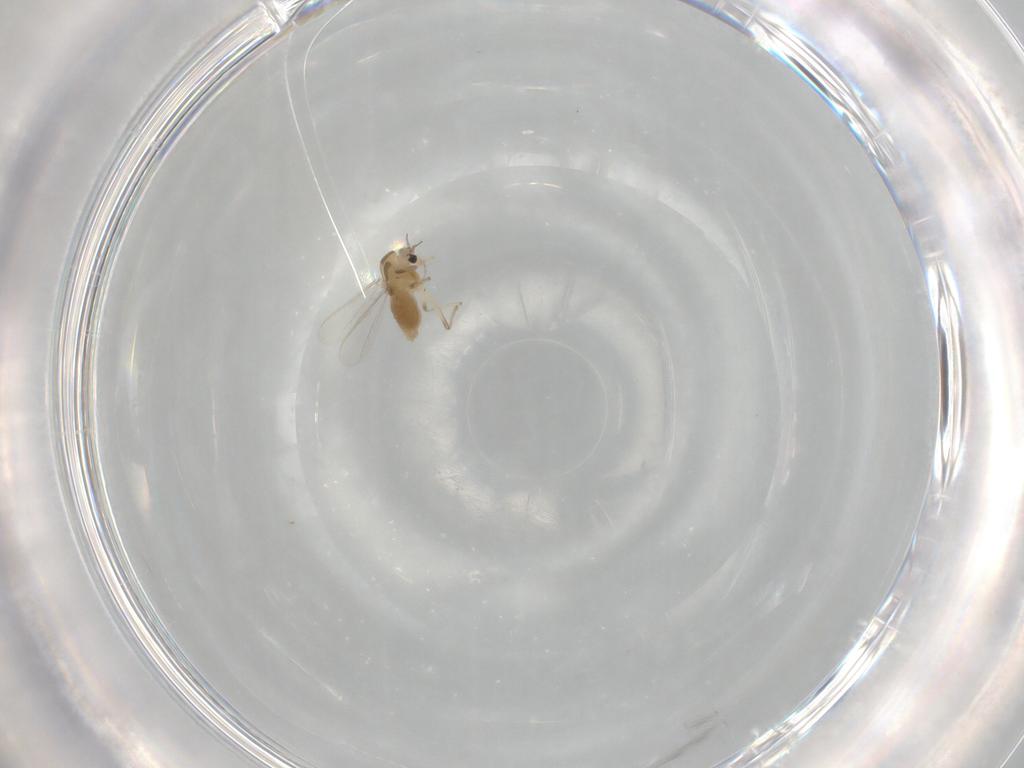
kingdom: Animalia
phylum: Arthropoda
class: Insecta
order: Diptera
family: Chironomidae
